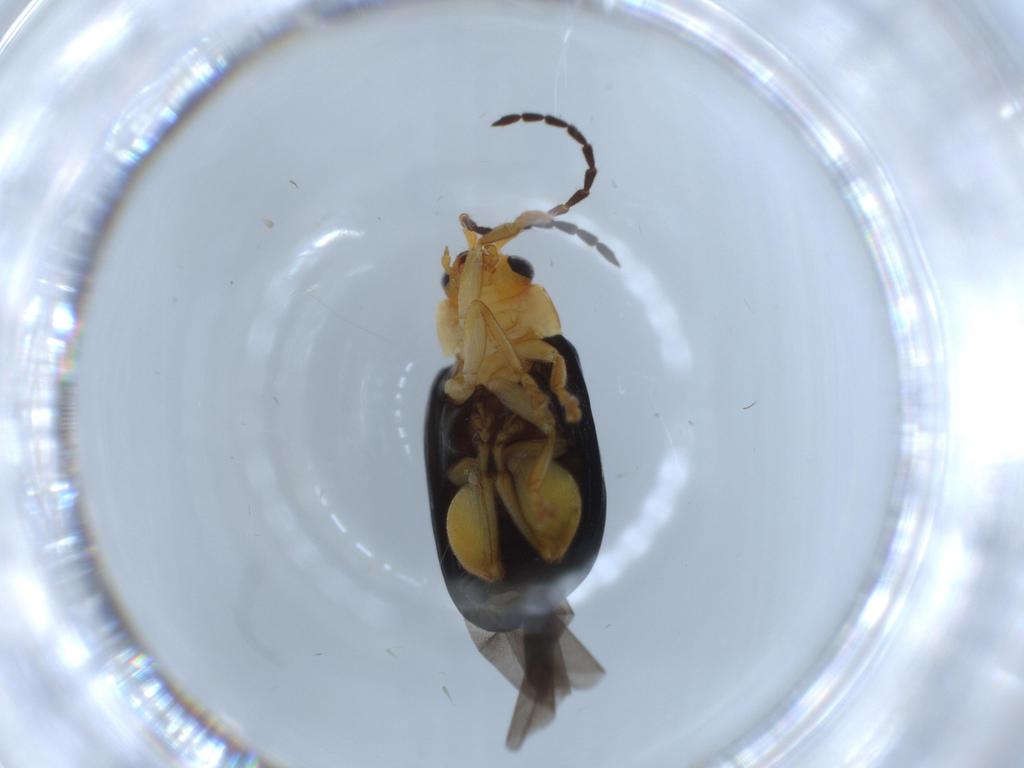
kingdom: Animalia
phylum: Arthropoda
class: Insecta
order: Coleoptera
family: Chrysomelidae
